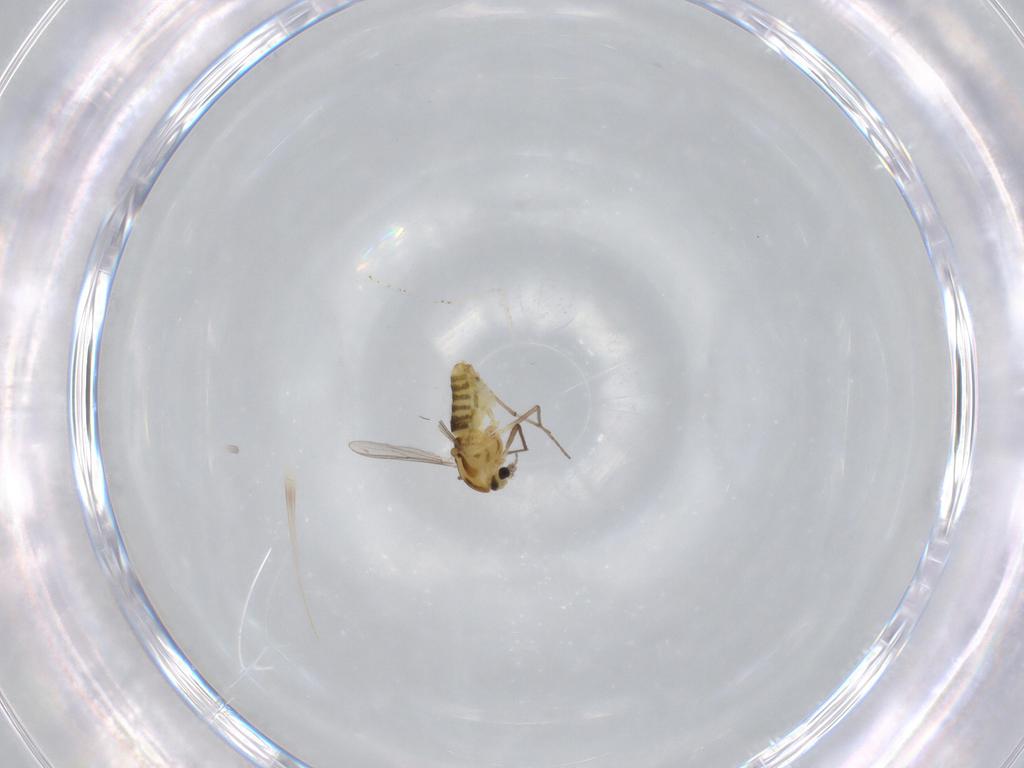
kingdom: Animalia
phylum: Arthropoda
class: Insecta
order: Diptera
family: Chironomidae
